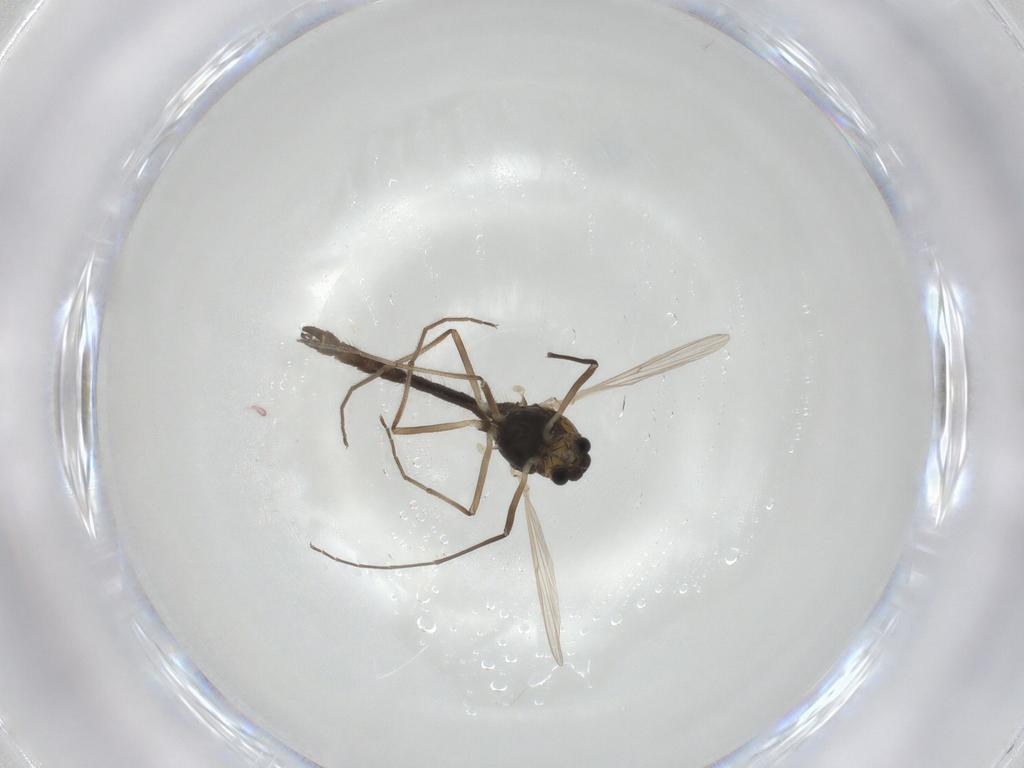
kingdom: Animalia
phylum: Arthropoda
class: Insecta
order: Diptera
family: Chironomidae
